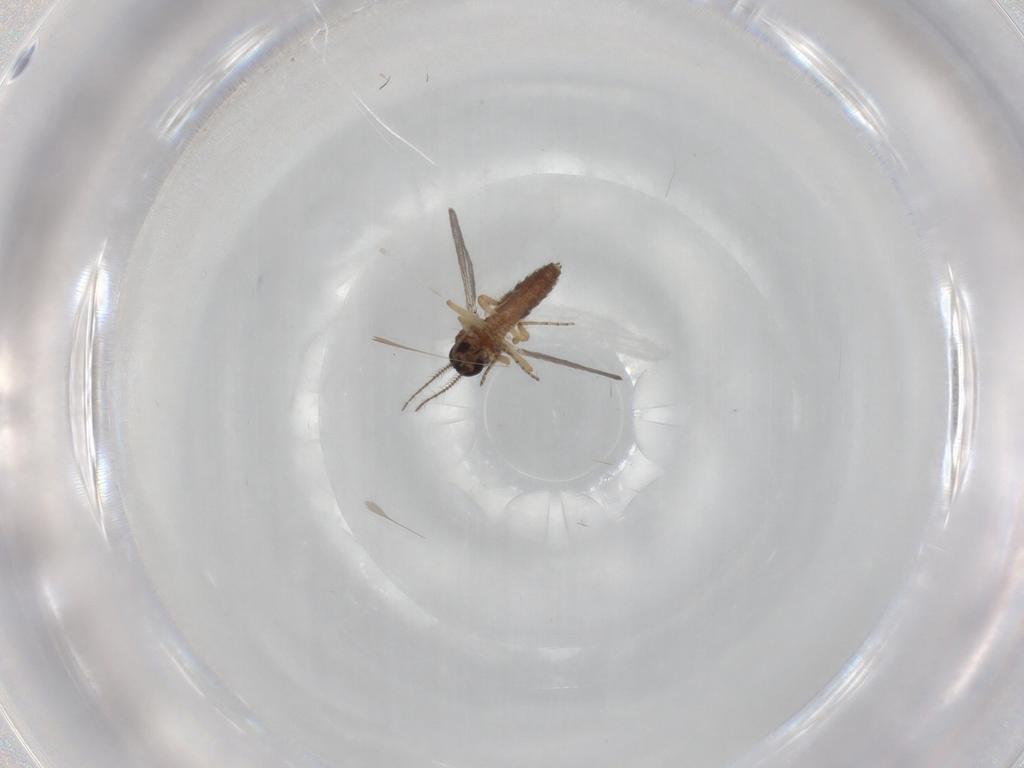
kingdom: Animalia
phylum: Arthropoda
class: Insecta
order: Diptera
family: Ceratopogonidae
